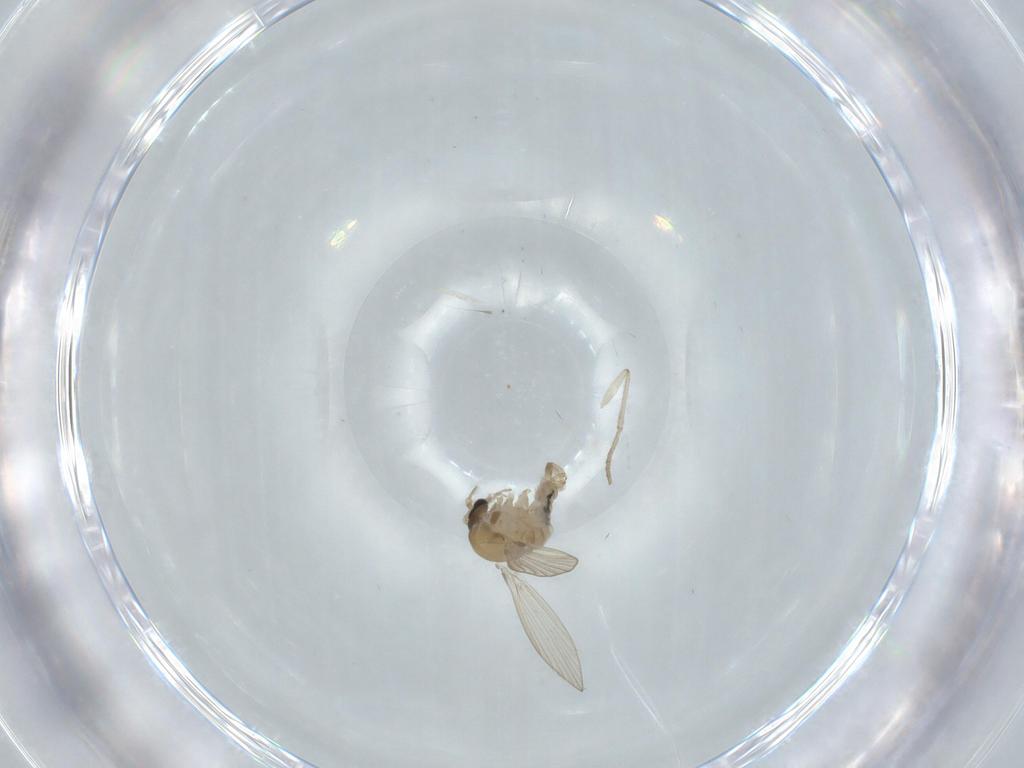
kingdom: Animalia
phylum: Arthropoda
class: Insecta
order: Diptera
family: Psychodidae
